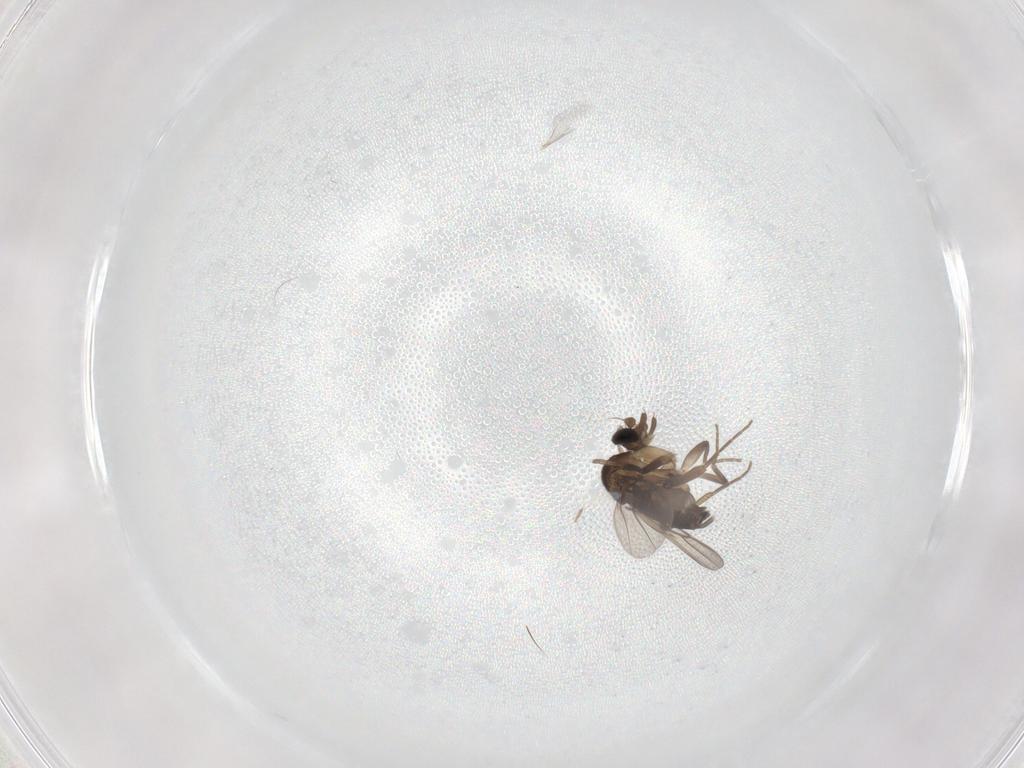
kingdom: Animalia
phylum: Arthropoda
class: Insecta
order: Diptera
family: Phoridae
